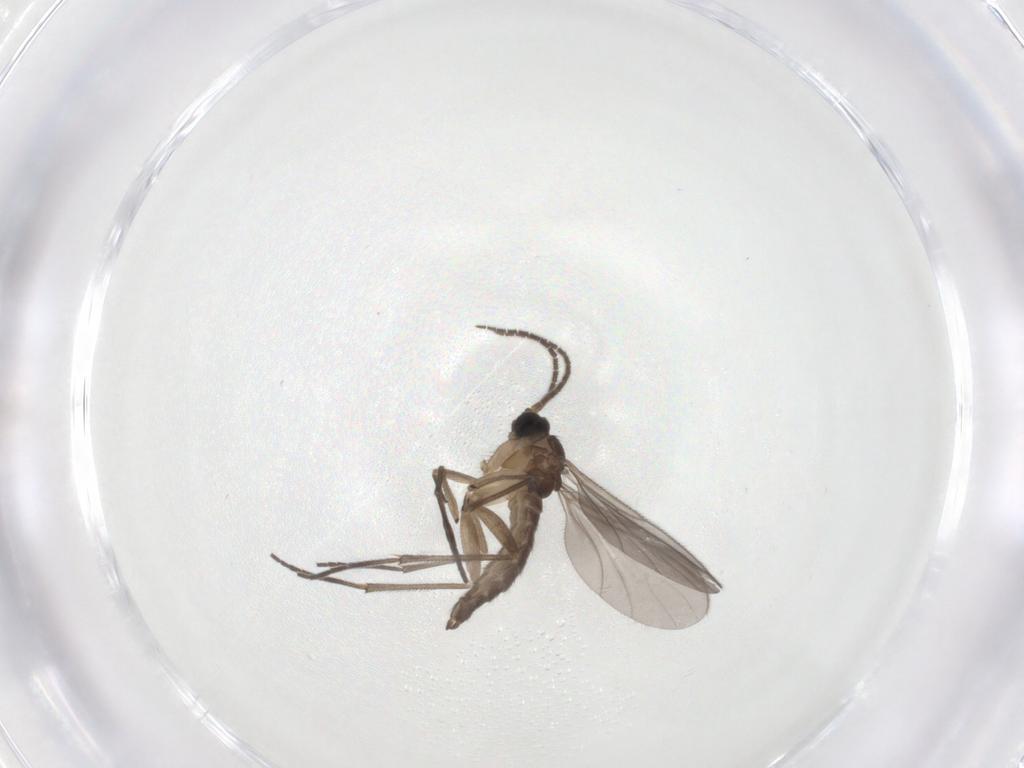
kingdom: Animalia
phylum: Arthropoda
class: Insecta
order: Diptera
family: Sciaridae
